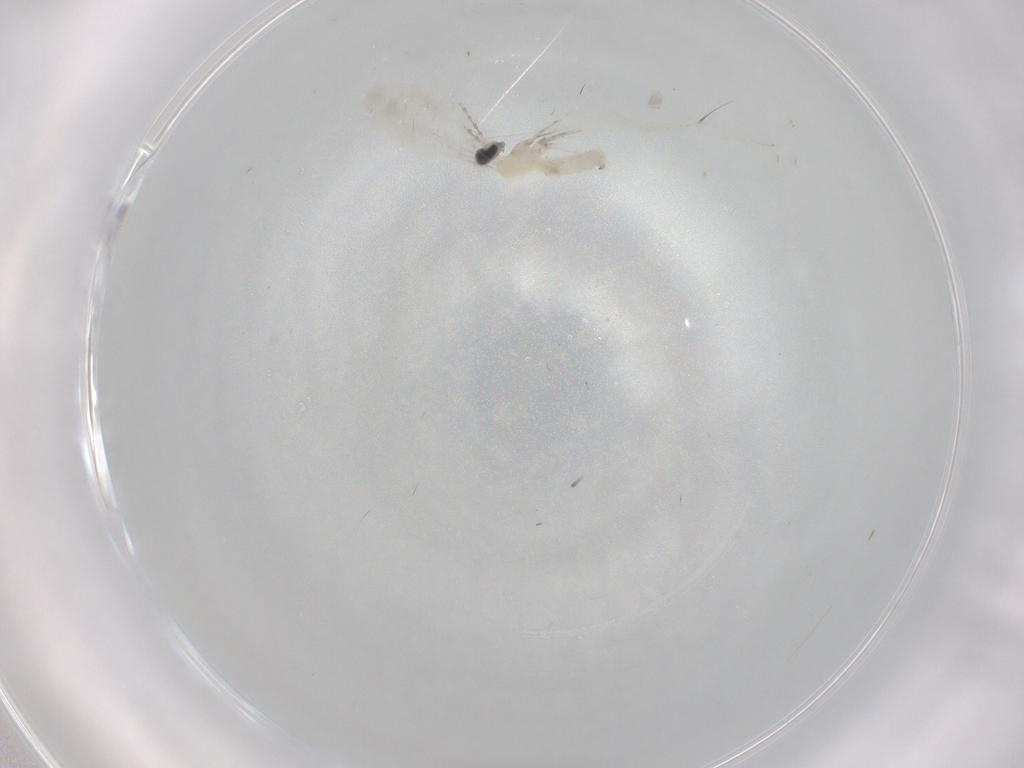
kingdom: Animalia
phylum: Arthropoda
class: Insecta
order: Diptera
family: Cecidomyiidae
